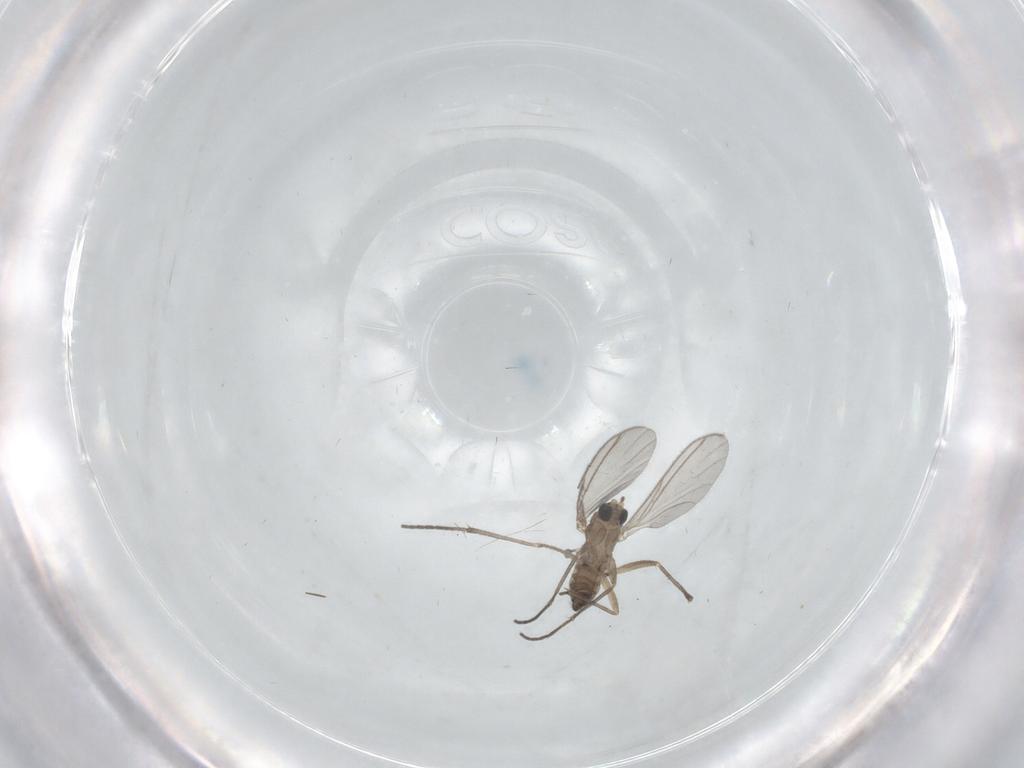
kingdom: Animalia
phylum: Arthropoda
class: Insecta
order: Diptera
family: Sciaridae
